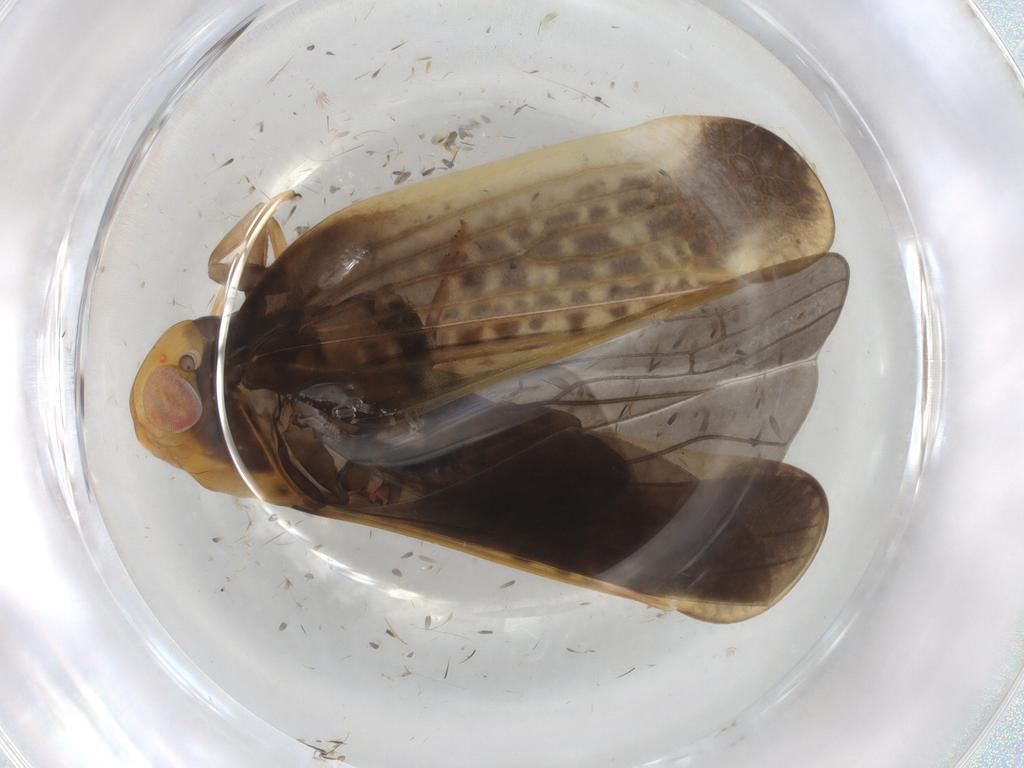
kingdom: Animalia
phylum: Arthropoda
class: Insecta
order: Hemiptera
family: Nogodinidae
